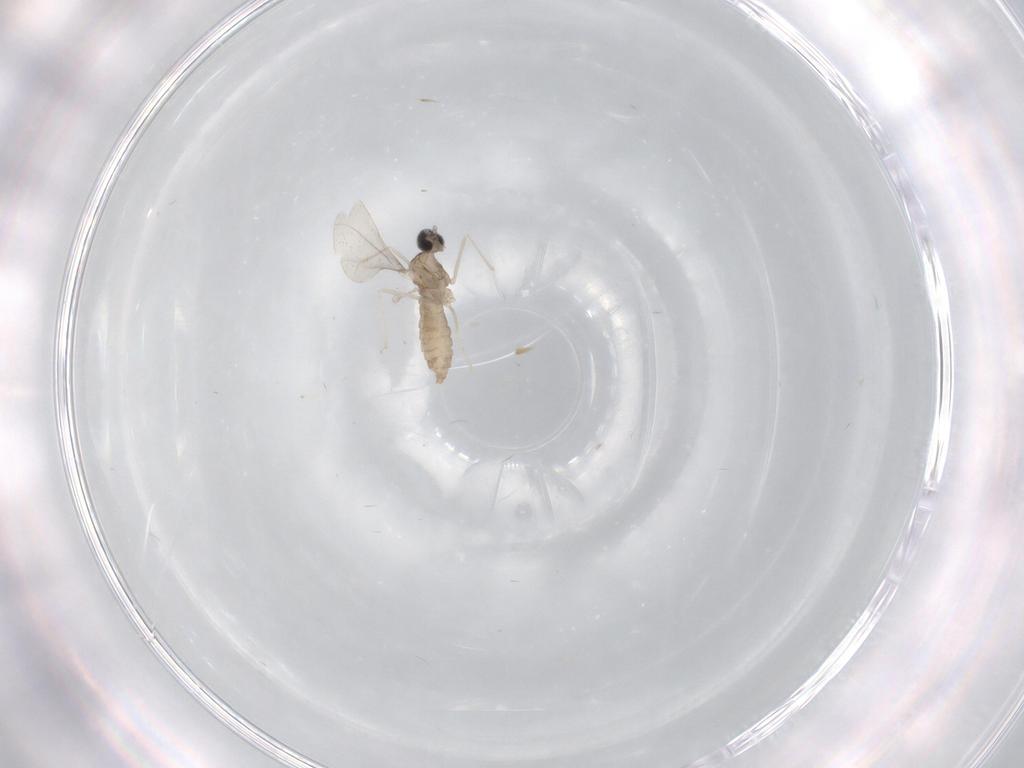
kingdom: Animalia
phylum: Arthropoda
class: Insecta
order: Diptera
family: Cecidomyiidae
